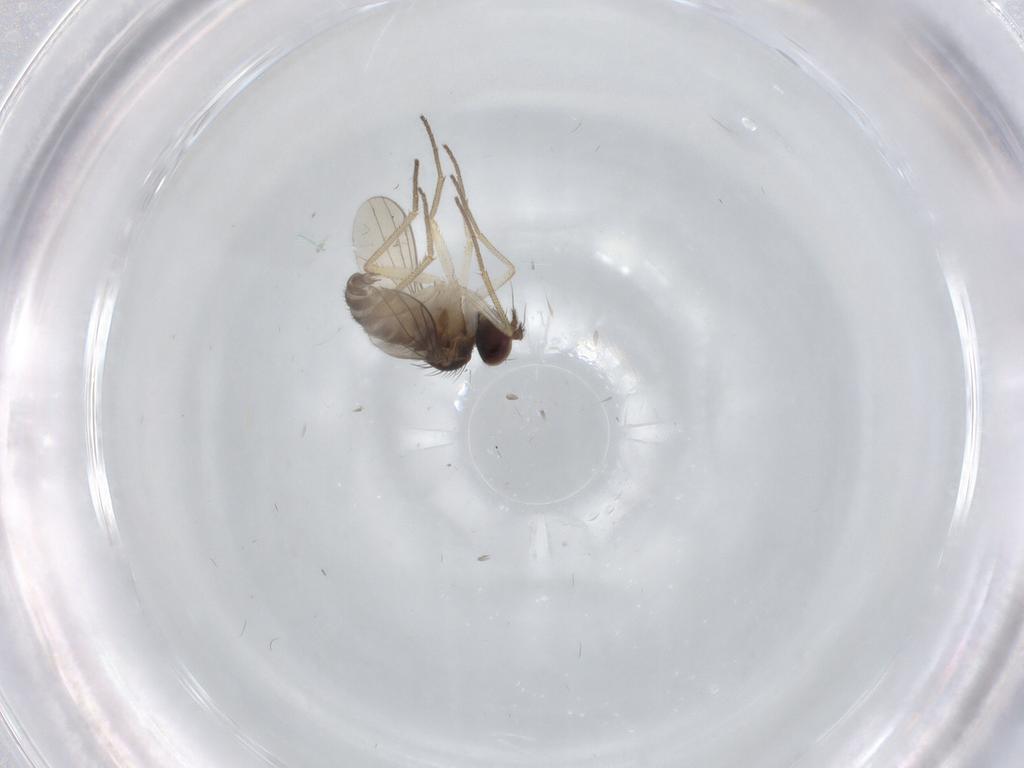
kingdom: Animalia
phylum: Arthropoda
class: Insecta
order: Diptera
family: Dolichopodidae
